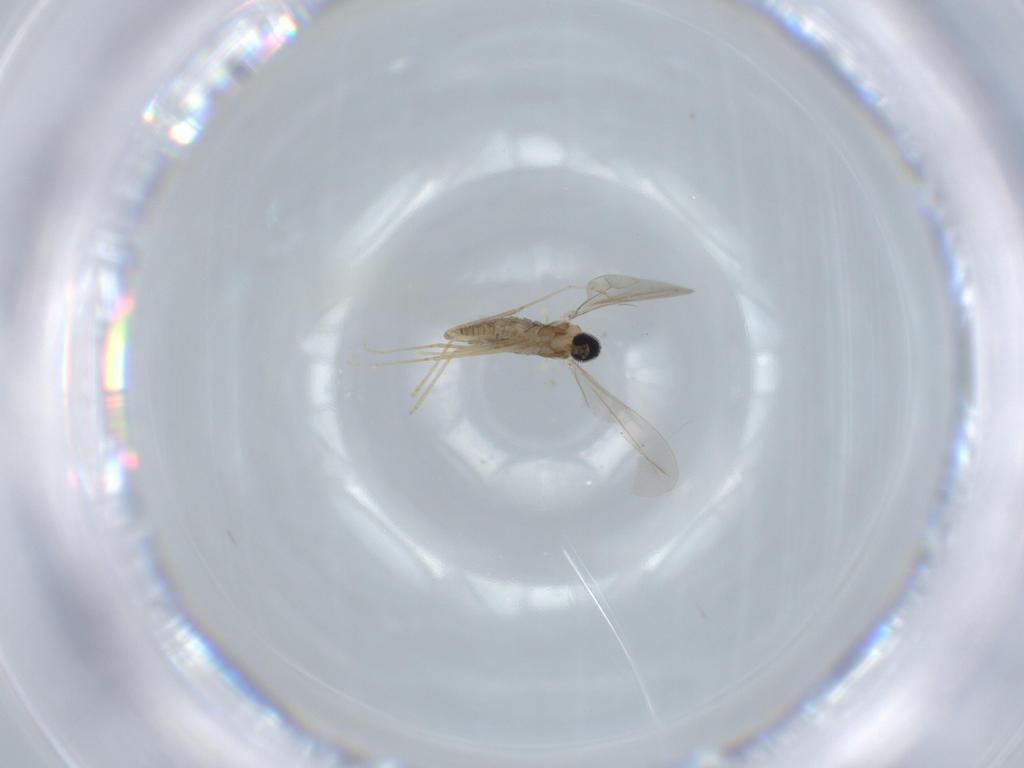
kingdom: Animalia
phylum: Arthropoda
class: Insecta
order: Diptera
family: Cecidomyiidae
